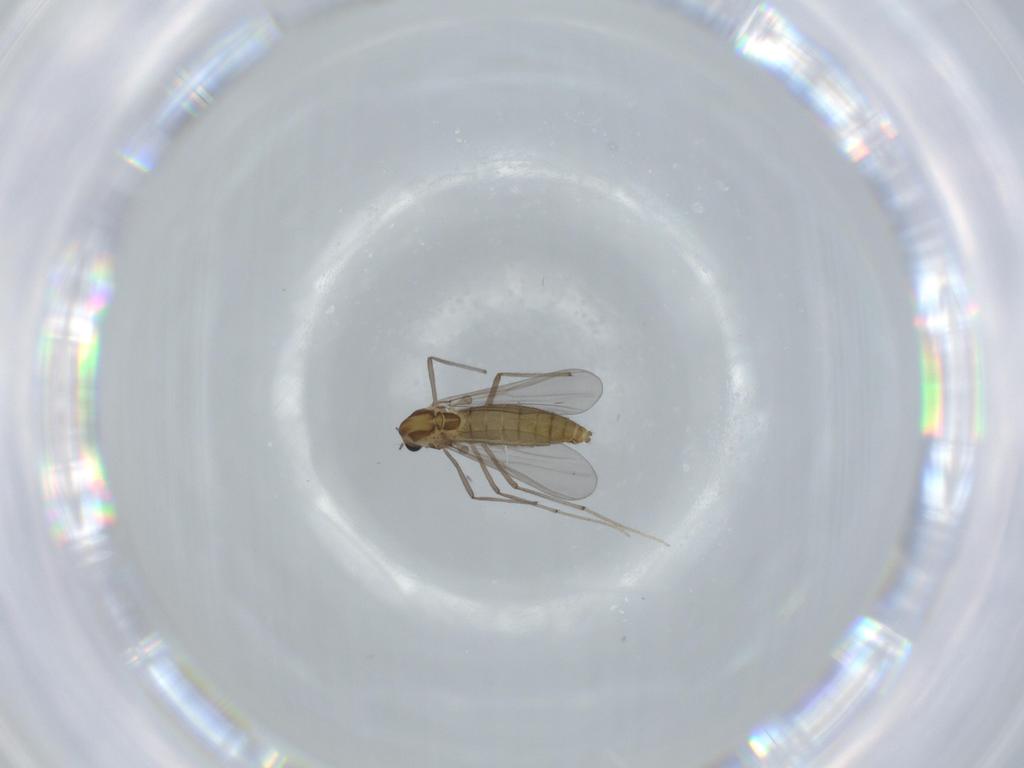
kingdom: Animalia
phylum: Arthropoda
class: Insecta
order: Diptera
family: Chironomidae
